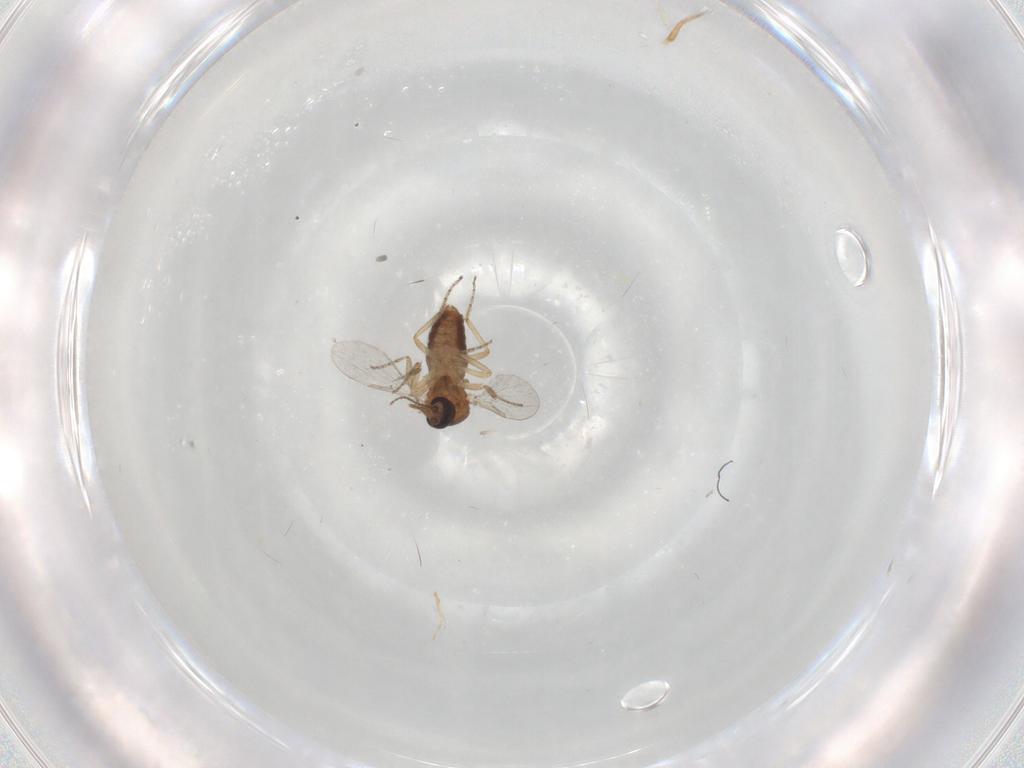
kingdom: Animalia
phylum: Arthropoda
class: Insecta
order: Diptera
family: Ceratopogonidae
